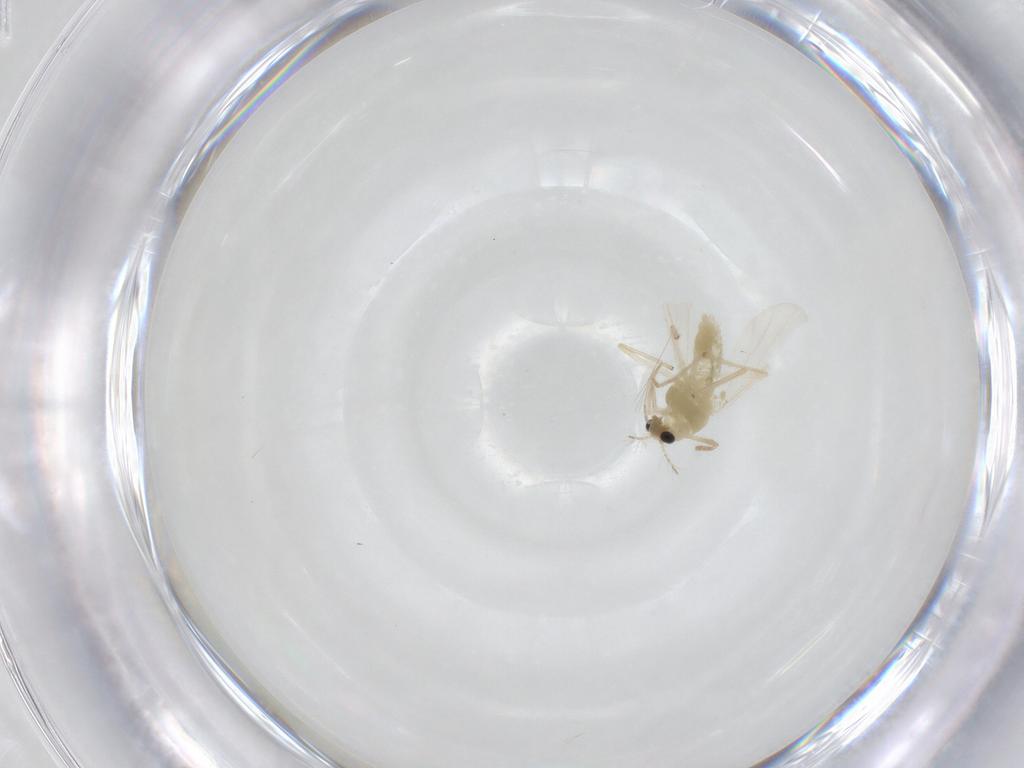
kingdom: Animalia
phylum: Arthropoda
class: Insecta
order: Diptera
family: Chironomidae
